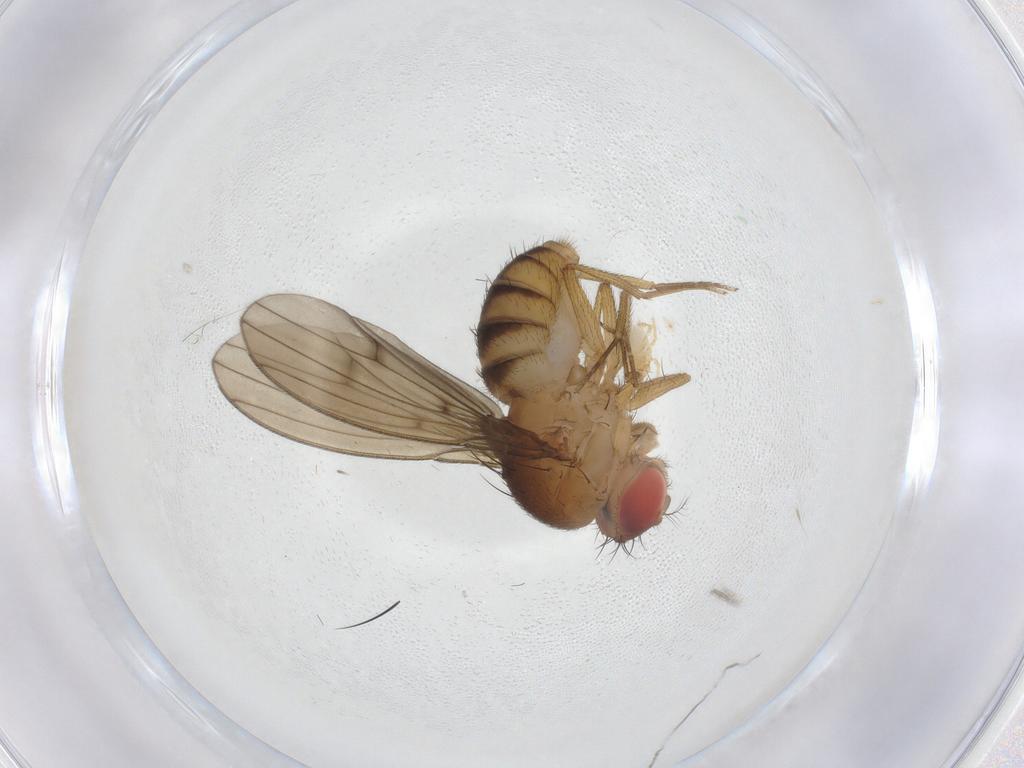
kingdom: Animalia
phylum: Arthropoda
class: Insecta
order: Diptera
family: Drosophilidae
